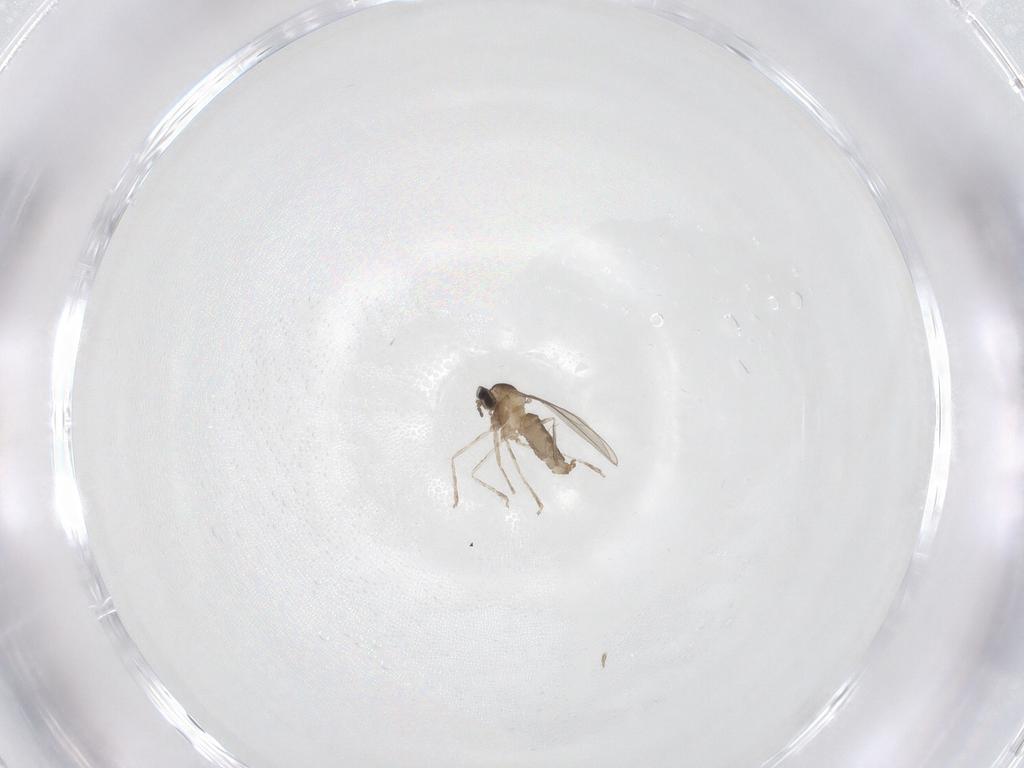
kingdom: Animalia
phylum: Arthropoda
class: Insecta
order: Diptera
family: Cecidomyiidae
